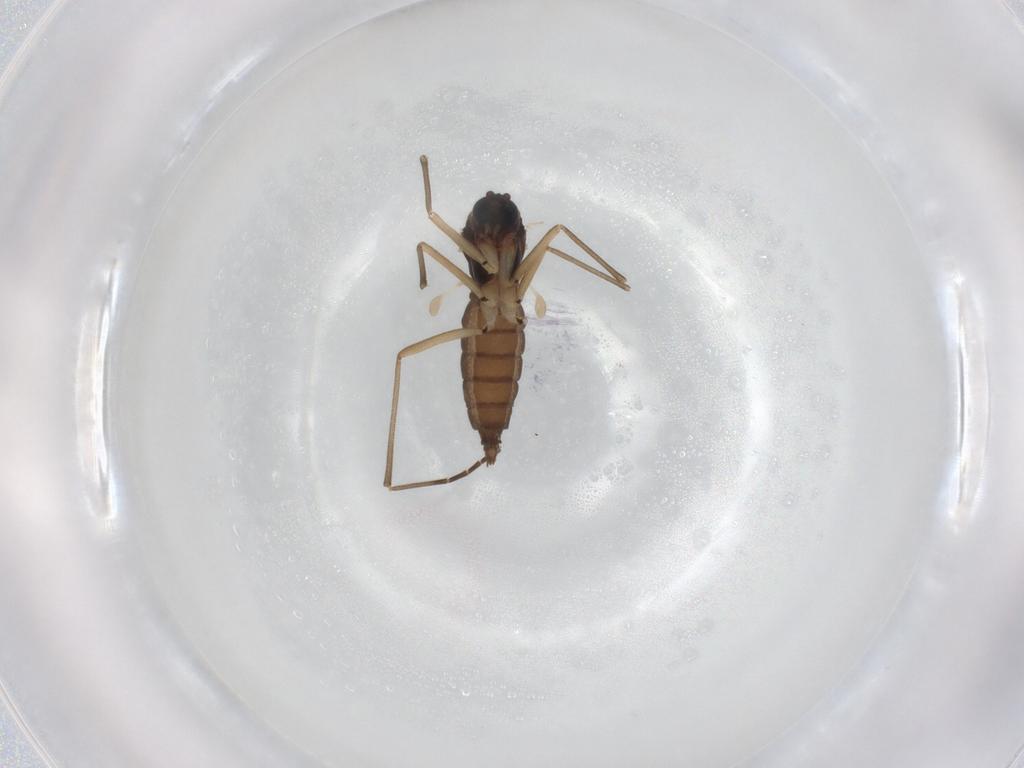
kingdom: Animalia
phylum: Arthropoda
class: Insecta
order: Diptera
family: Sciaridae
